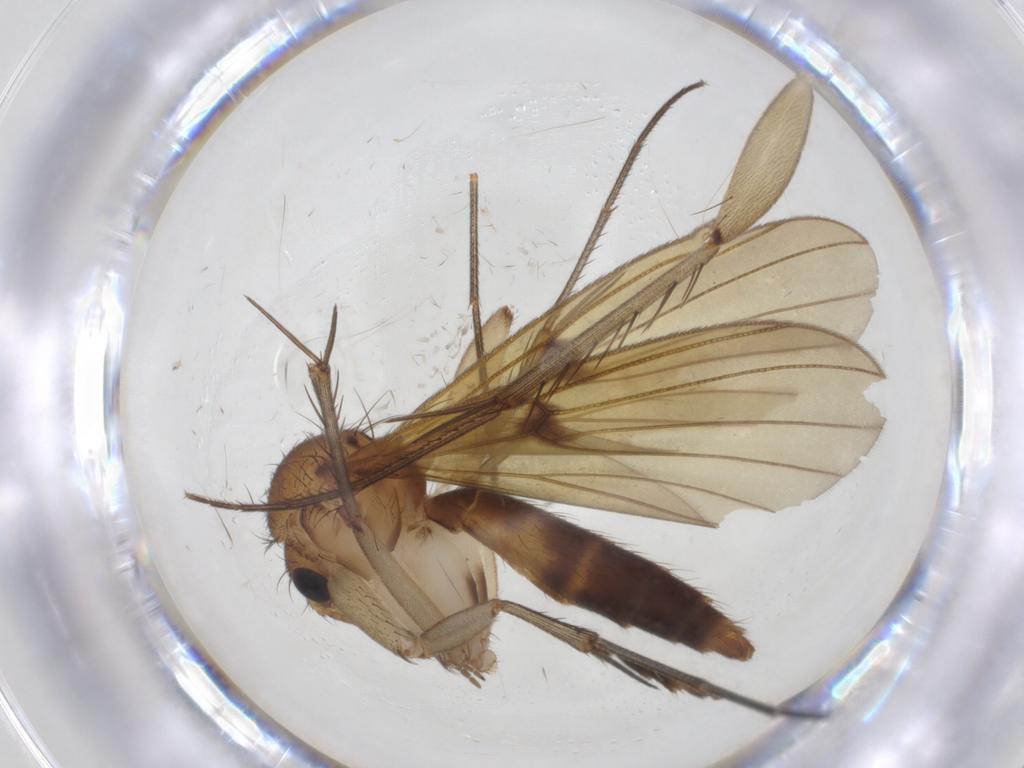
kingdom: Animalia
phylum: Arthropoda
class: Insecta
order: Diptera
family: Mycetophilidae
